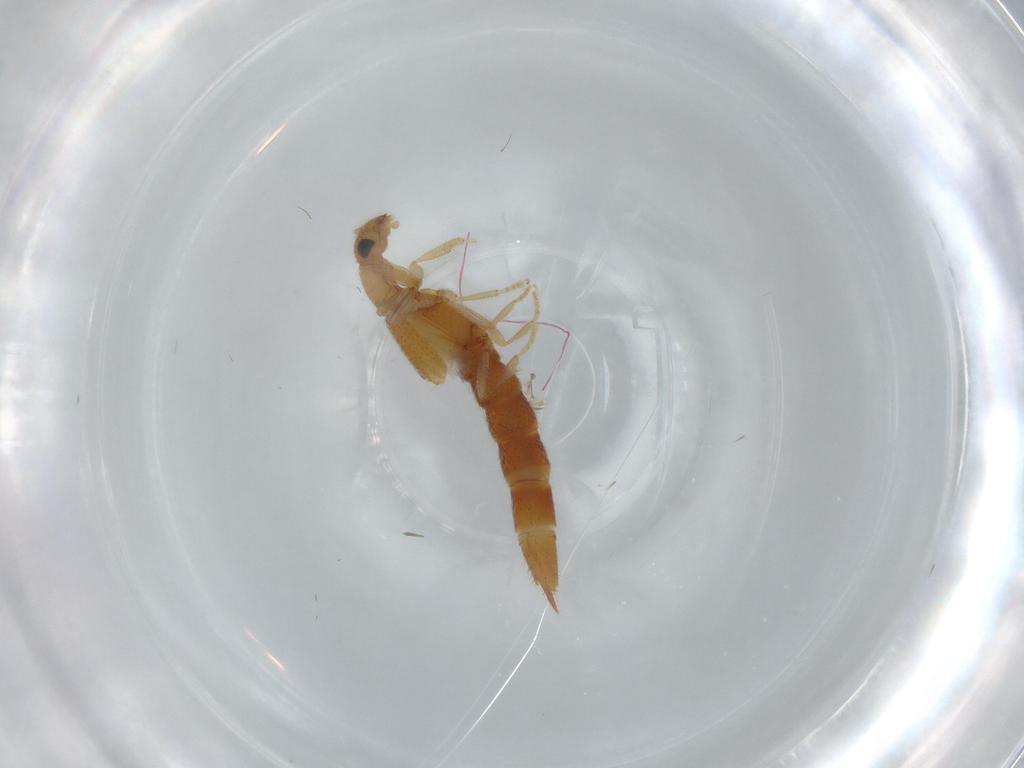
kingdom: Animalia
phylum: Arthropoda
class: Insecta
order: Coleoptera
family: Staphylinidae
